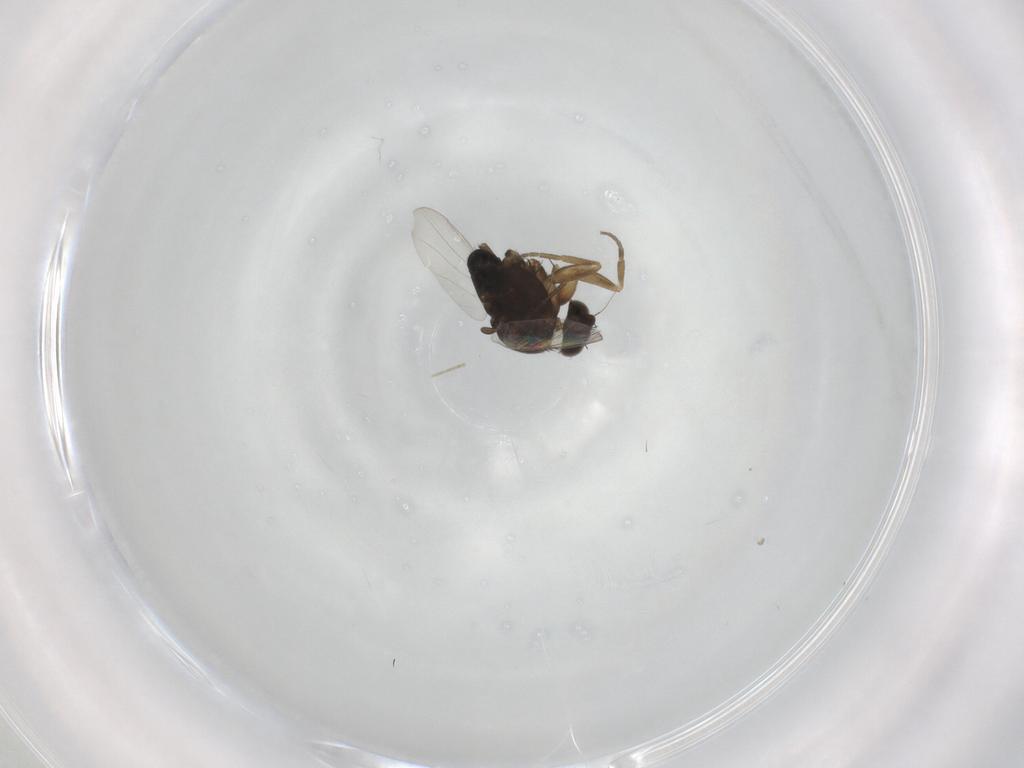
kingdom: Animalia
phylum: Arthropoda
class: Insecta
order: Diptera
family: Phoridae
